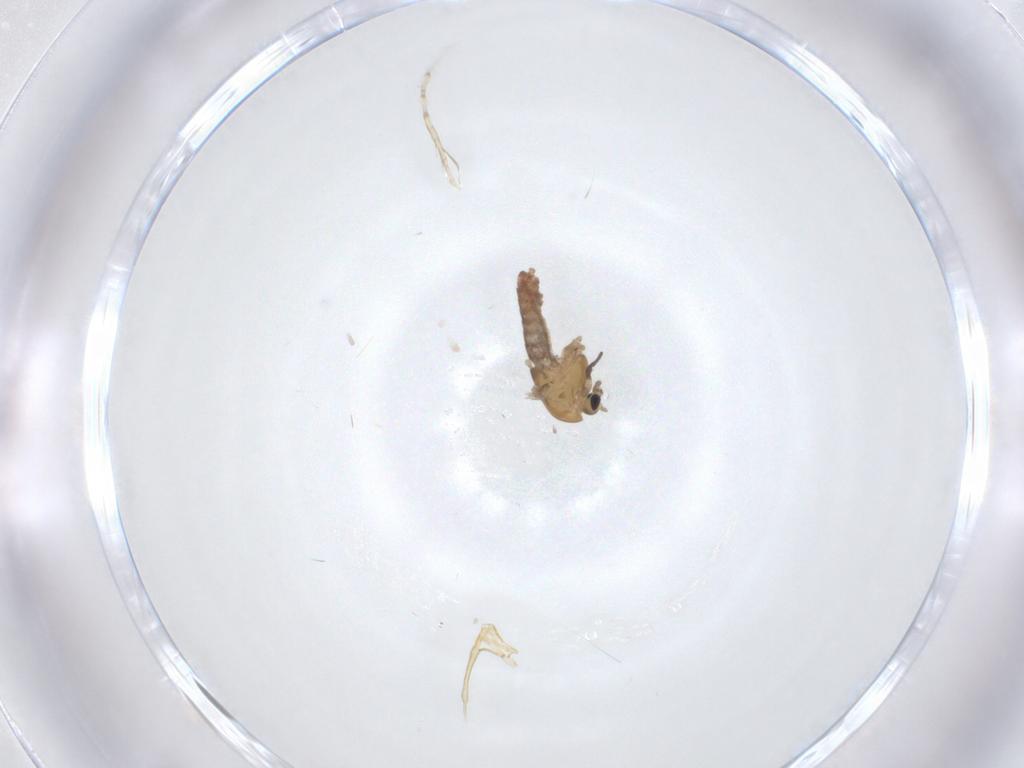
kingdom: Animalia
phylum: Arthropoda
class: Insecta
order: Diptera
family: Chironomidae
